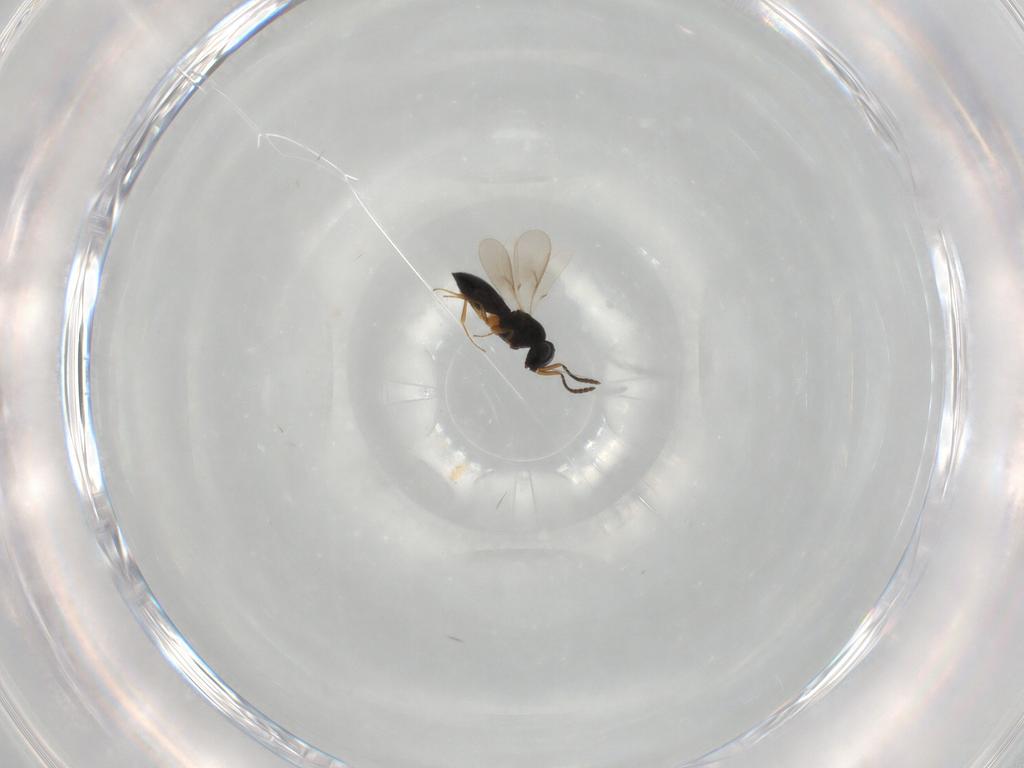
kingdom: Animalia
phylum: Arthropoda
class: Insecta
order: Hymenoptera
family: Scelionidae
